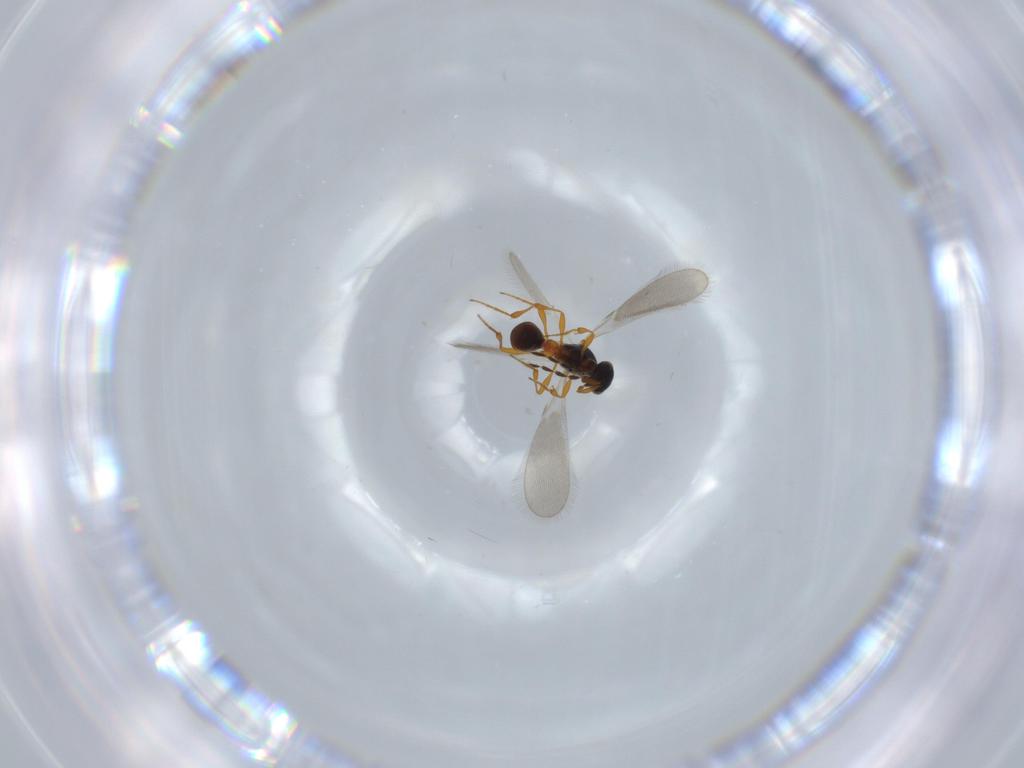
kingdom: Animalia
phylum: Arthropoda
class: Insecta
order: Hymenoptera
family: Platygastridae
